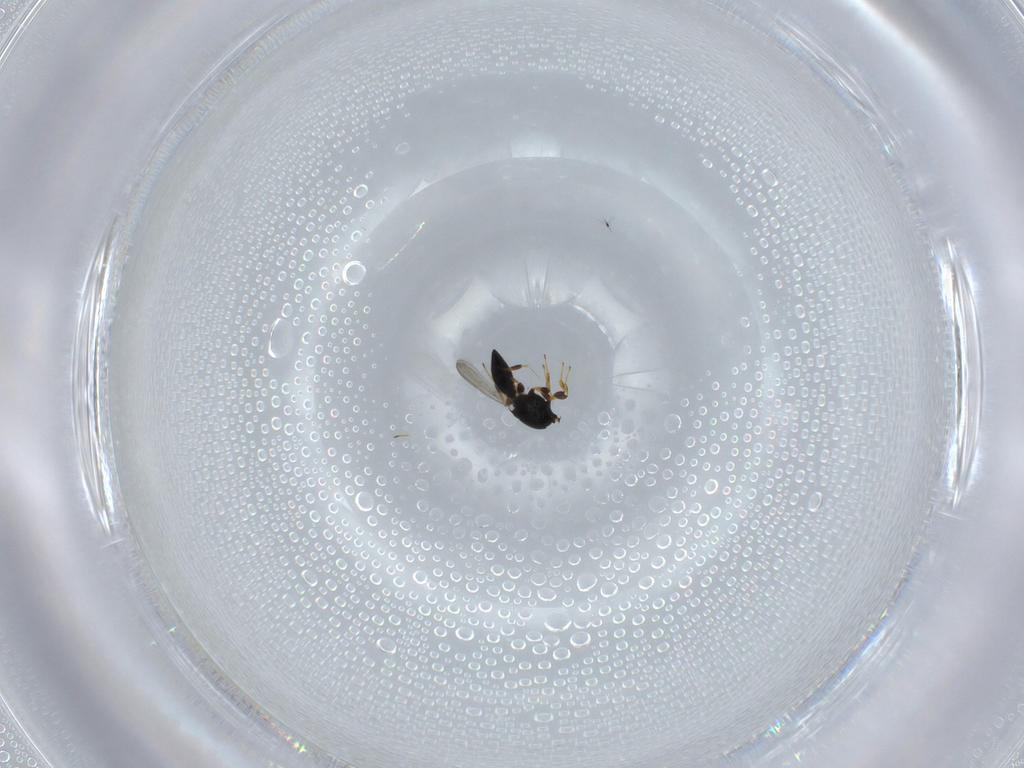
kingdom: Animalia
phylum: Arthropoda
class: Insecta
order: Hymenoptera
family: Platygastridae
